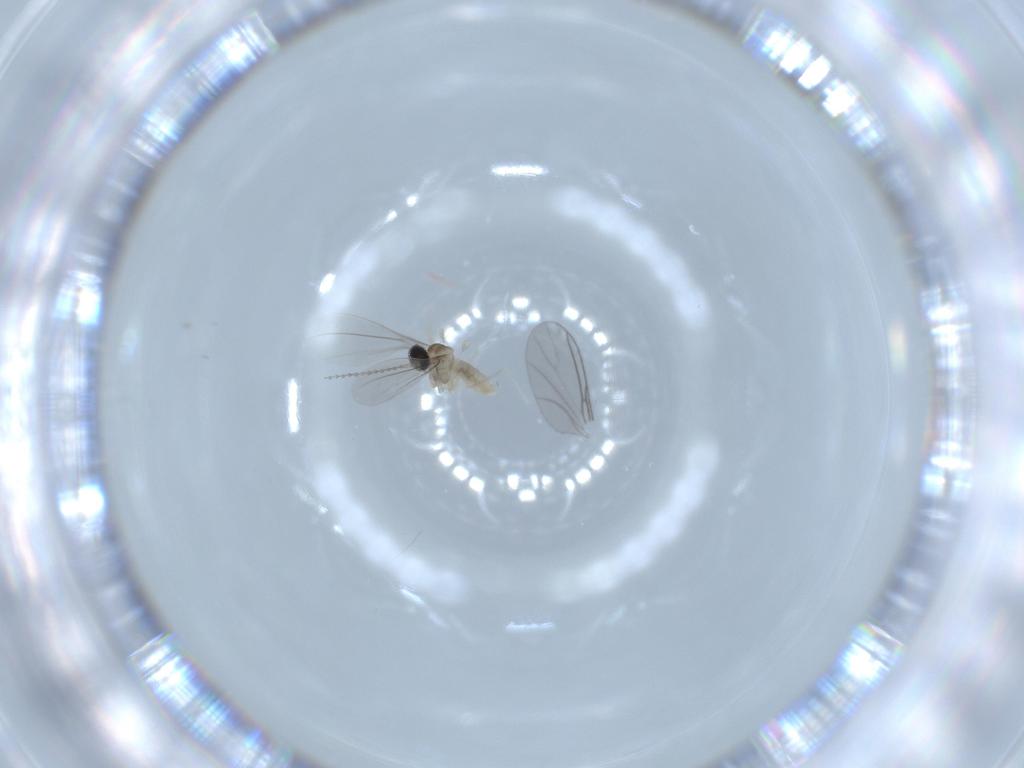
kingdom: Animalia
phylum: Arthropoda
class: Insecta
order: Diptera
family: Cecidomyiidae
